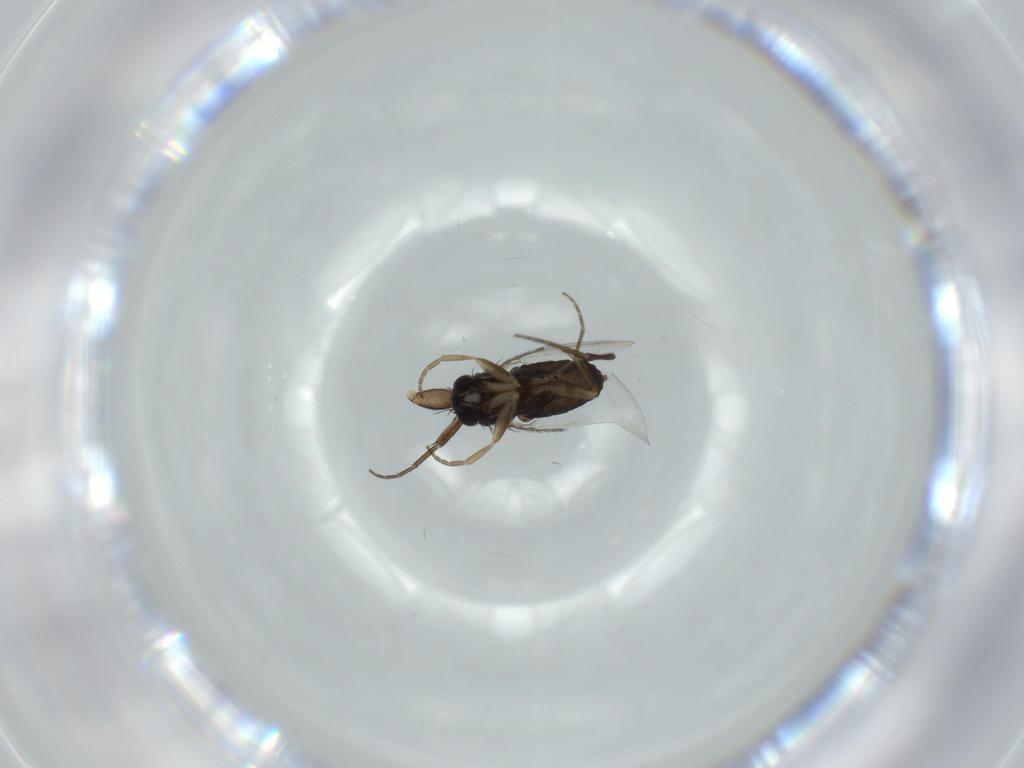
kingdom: Animalia
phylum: Arthropoda
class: Insecta
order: Diptera
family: Phoridae
